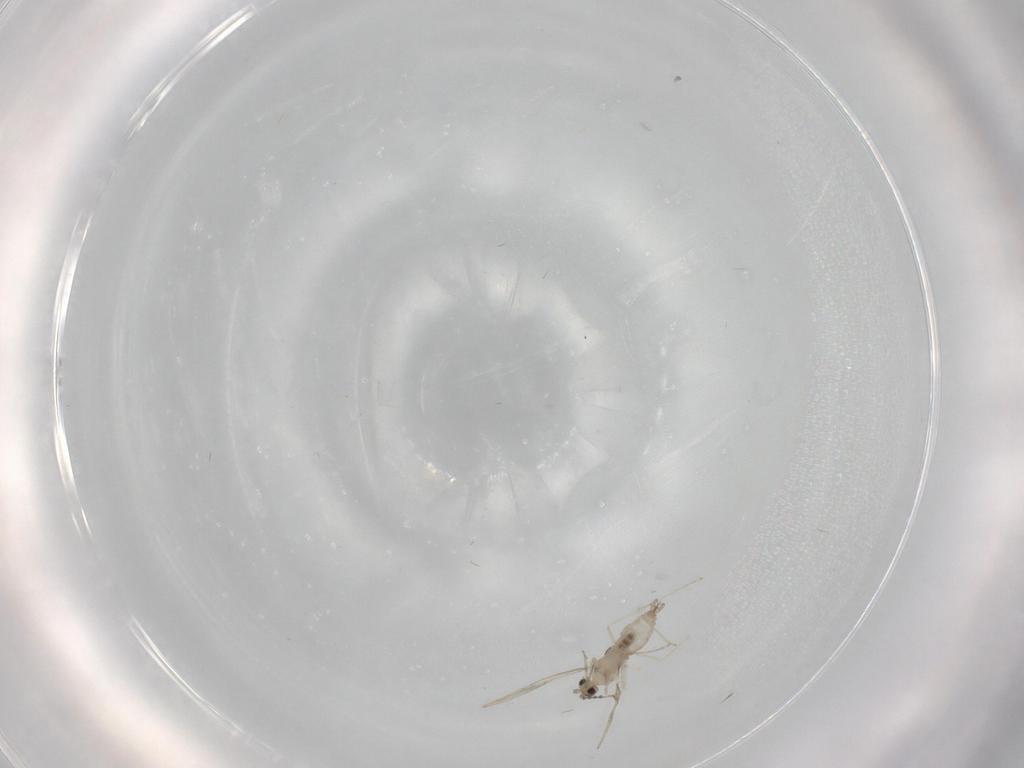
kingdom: Animalia
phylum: Arthropoda
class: Insecta
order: Diptera
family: Cecidomyiidae
